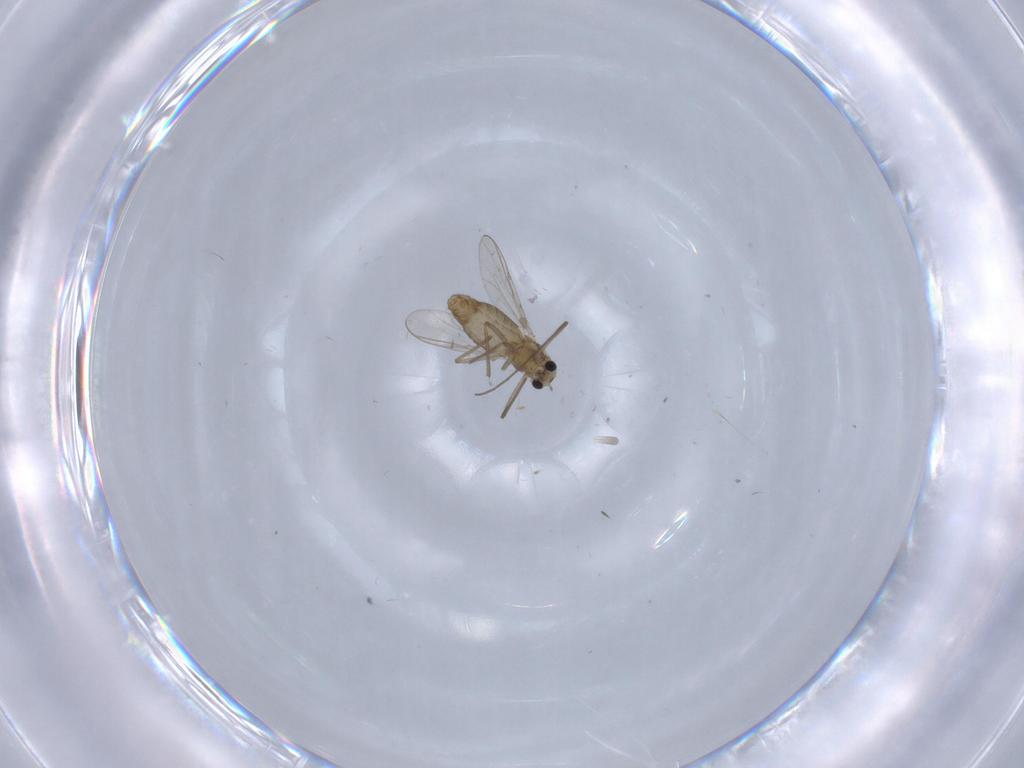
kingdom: Animalia
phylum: Arthropoda
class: Insecta
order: Diptera
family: Chironomidae
